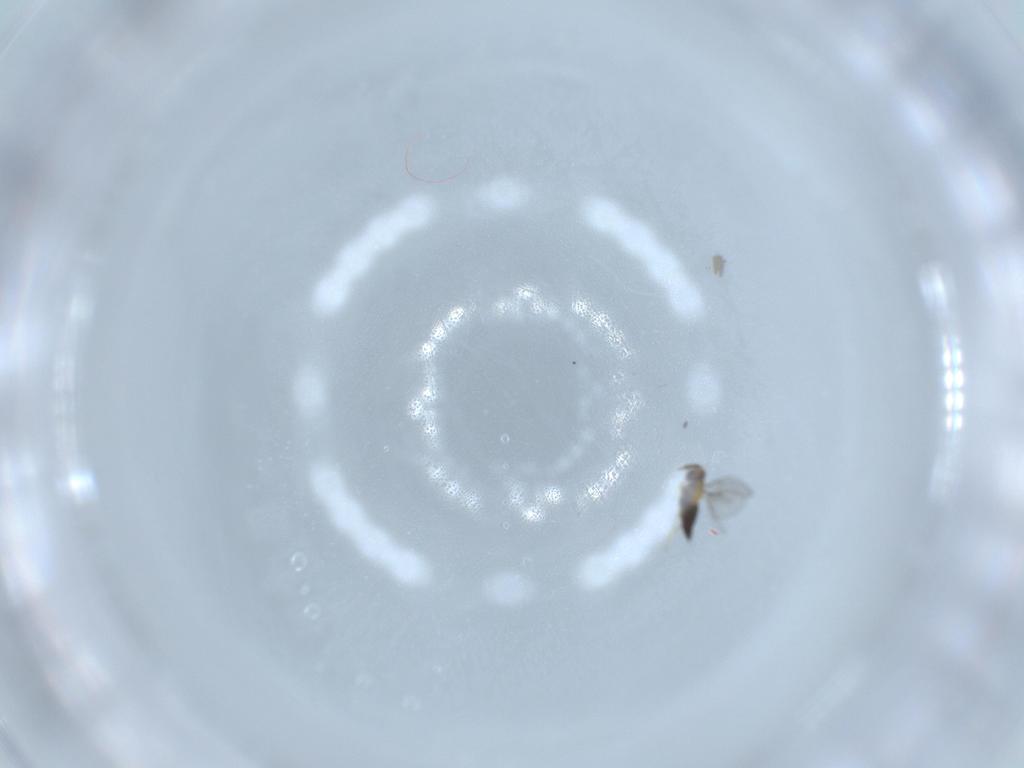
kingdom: Animalia
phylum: Arthropoda
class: Insecta
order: Hymenoptera
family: Trichogrammatidae
